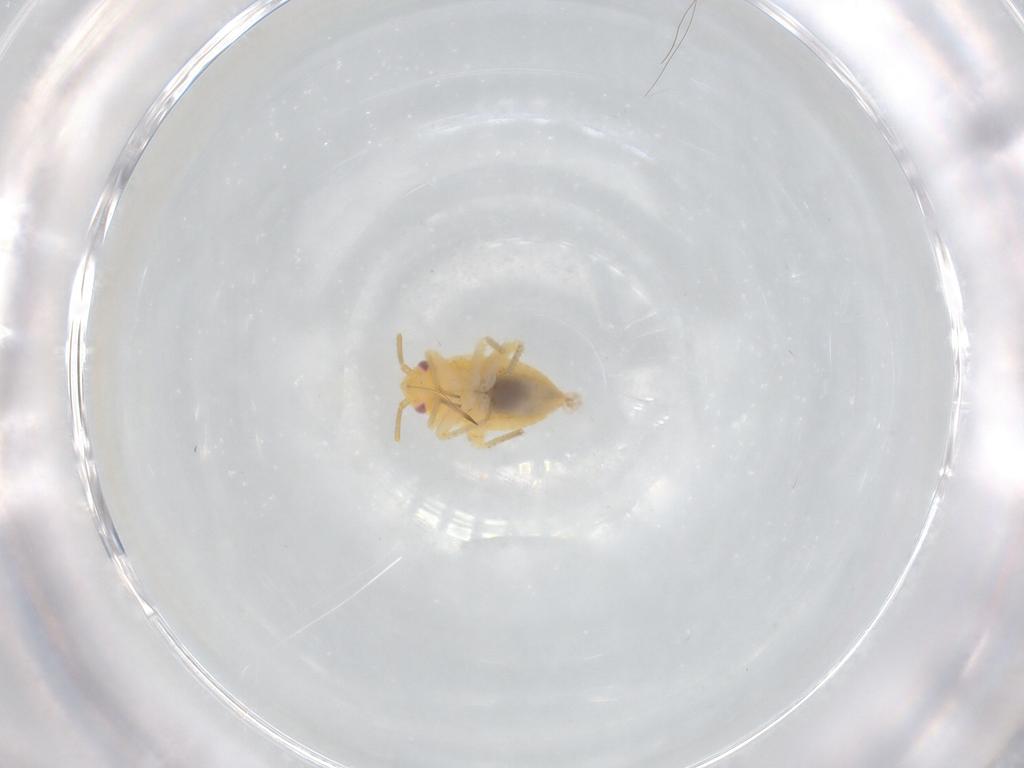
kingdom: Animalia
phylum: Arthropoda
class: Insecta
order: Hemiptera
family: Miridae
